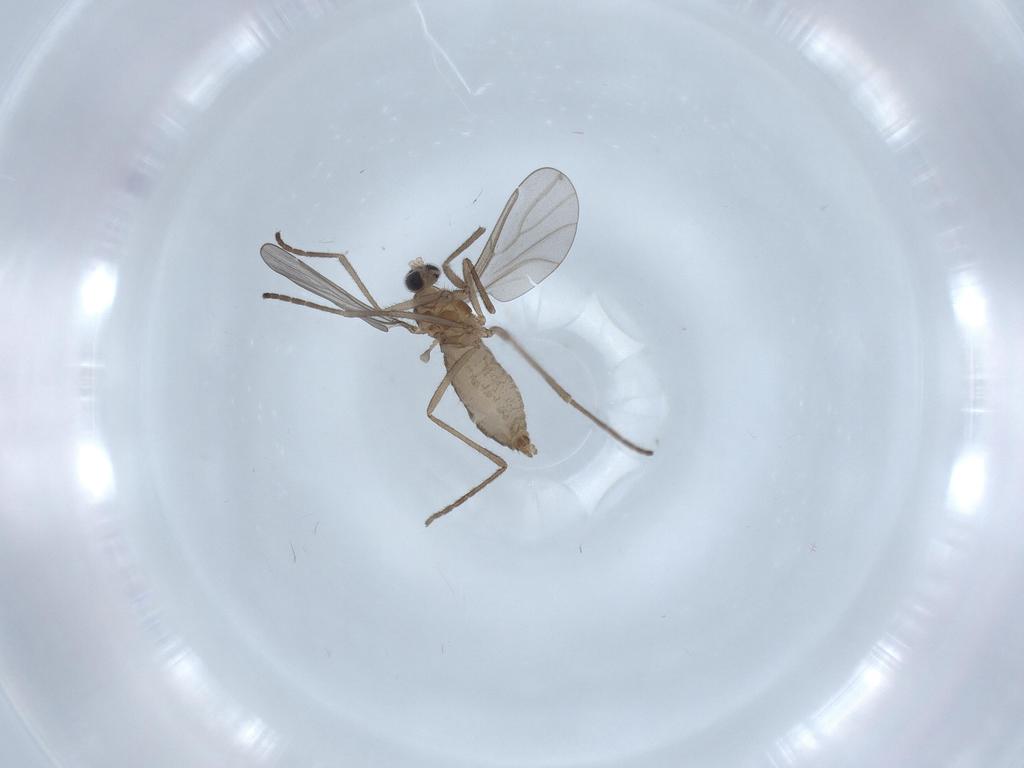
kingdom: Animalia
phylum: Arthropoda
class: Insecta
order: Diptera
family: Cecidomyiidae
